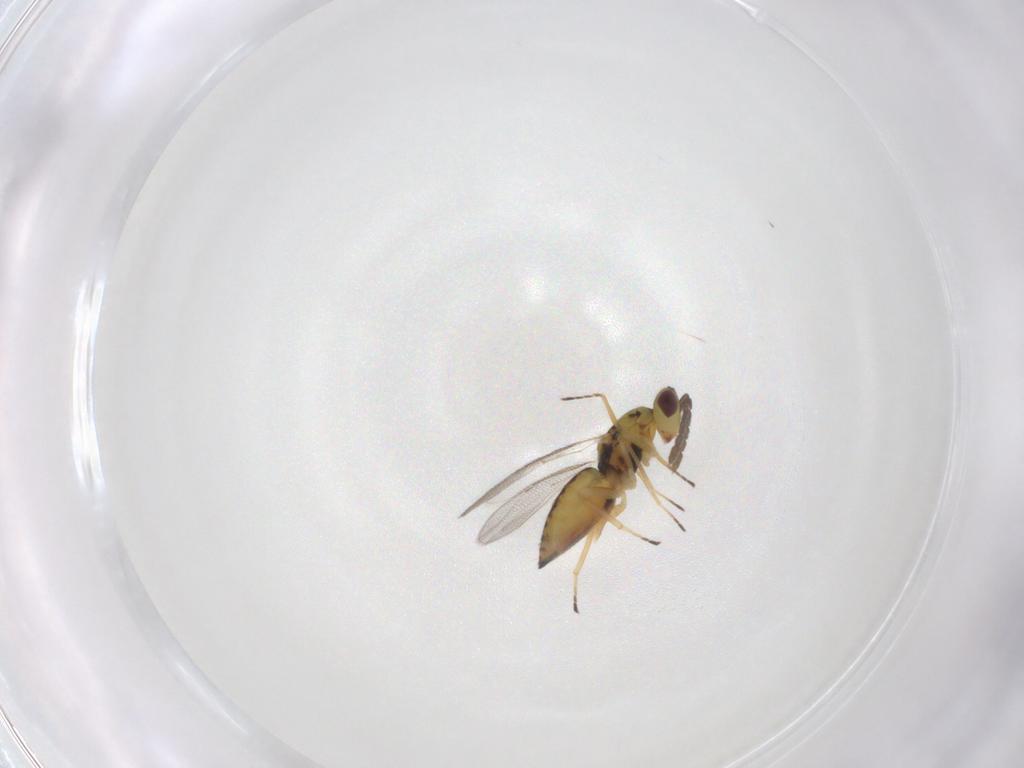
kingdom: Animalia
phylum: Arthropoda
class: Insecta
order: Hymenoptera
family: Eulophidae
